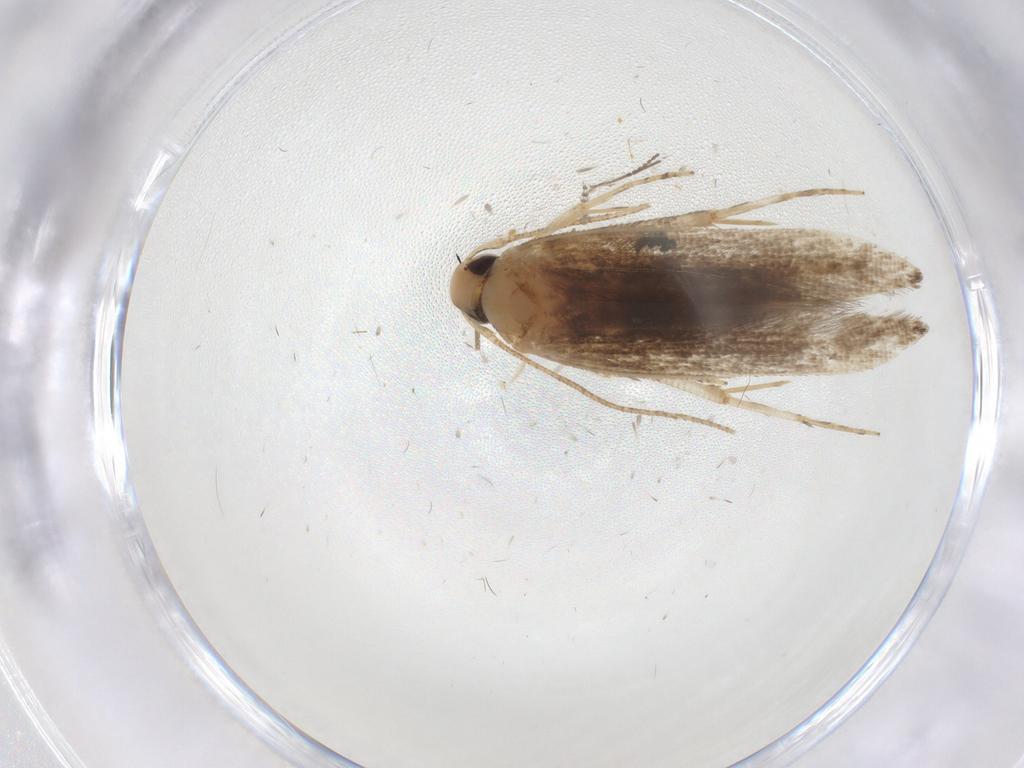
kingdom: Animalia
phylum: Arthropoda
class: Insecta
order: Lepidoptera
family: Cosmopterigidae
